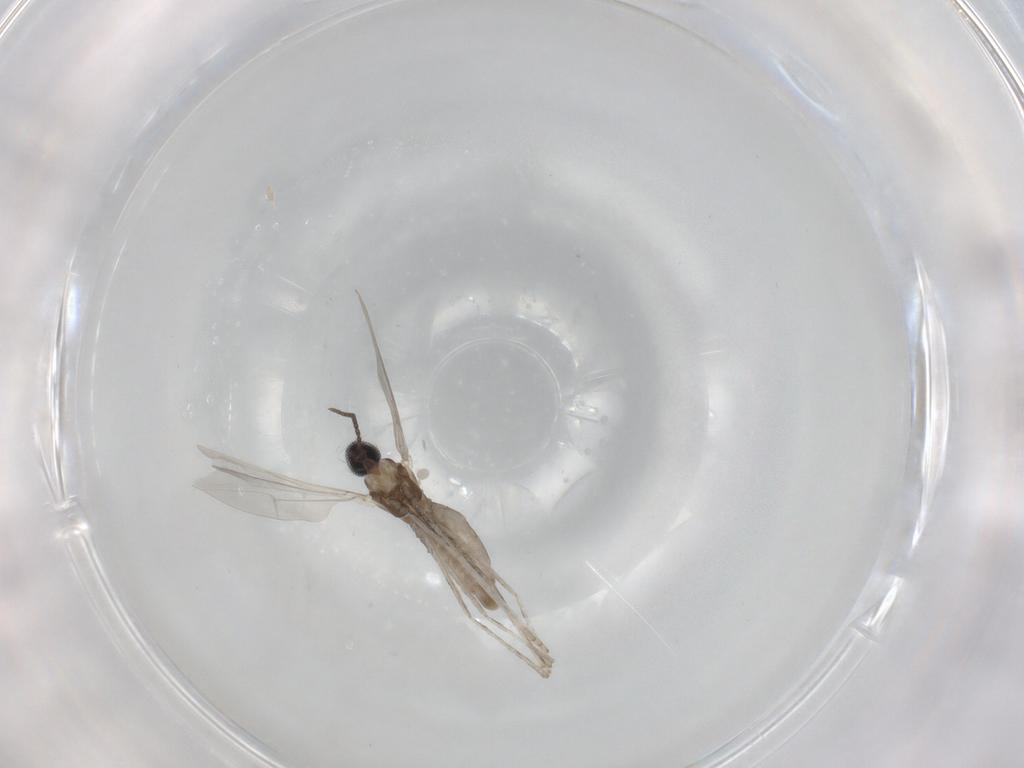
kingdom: Animalia
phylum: Arthropoda
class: Insecta
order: Diptera
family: Cecidomyiidae
